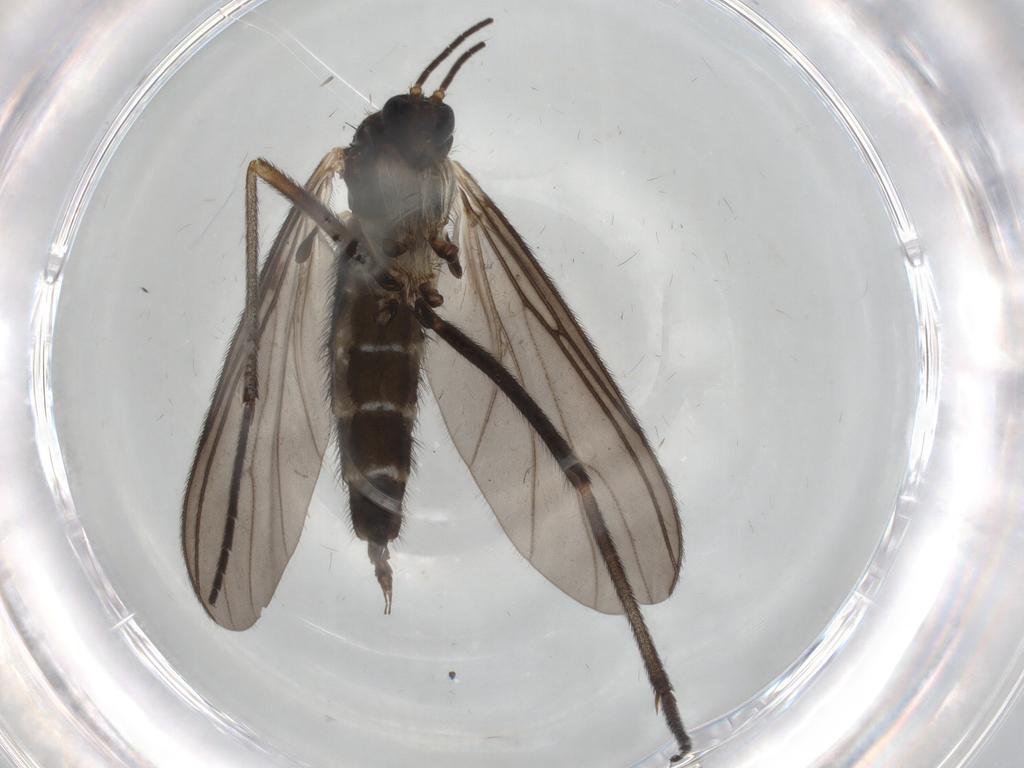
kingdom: Animalia
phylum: Arthropoda
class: Insecta
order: Diptera
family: Sciaridae
